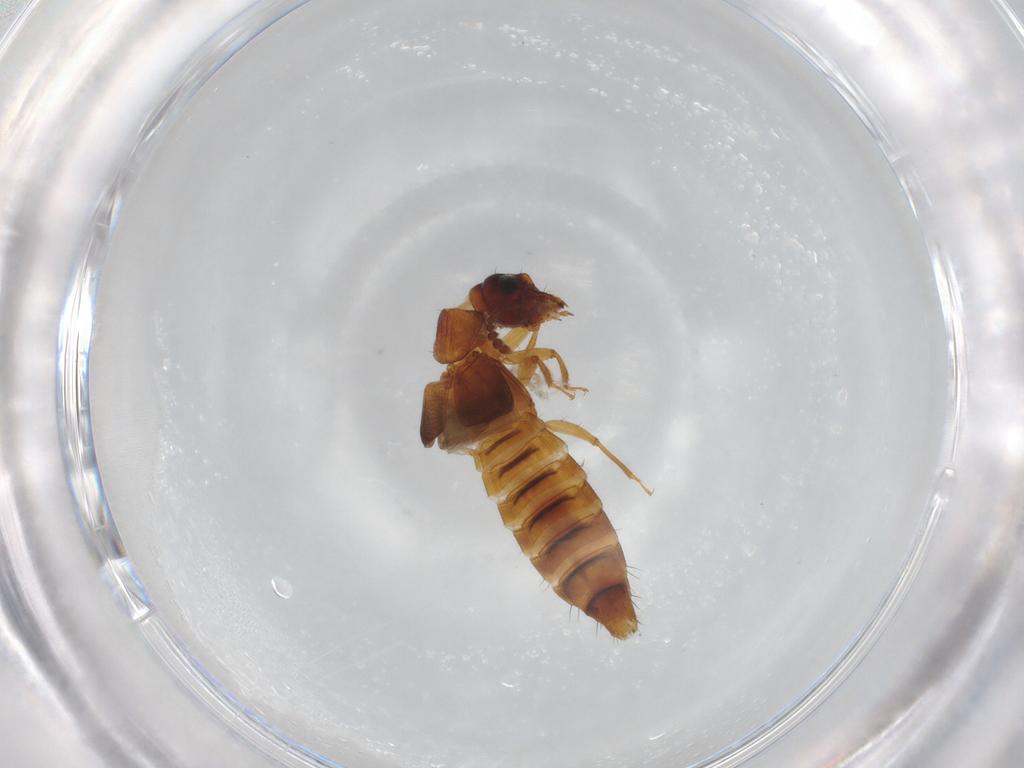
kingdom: Animalia
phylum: Arthropoda
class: Insecta
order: Coleoptera
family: Staphylinidae
